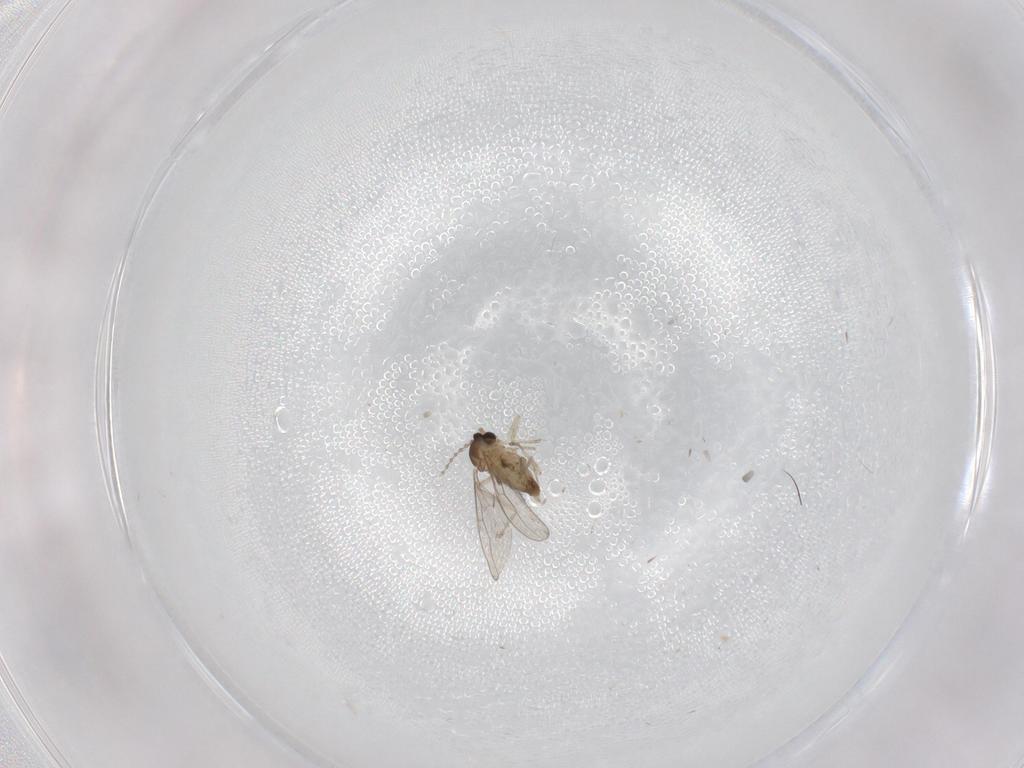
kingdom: Animalia
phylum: Arthropoda
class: Insecta
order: Diptera
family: Cecidomyiidae
